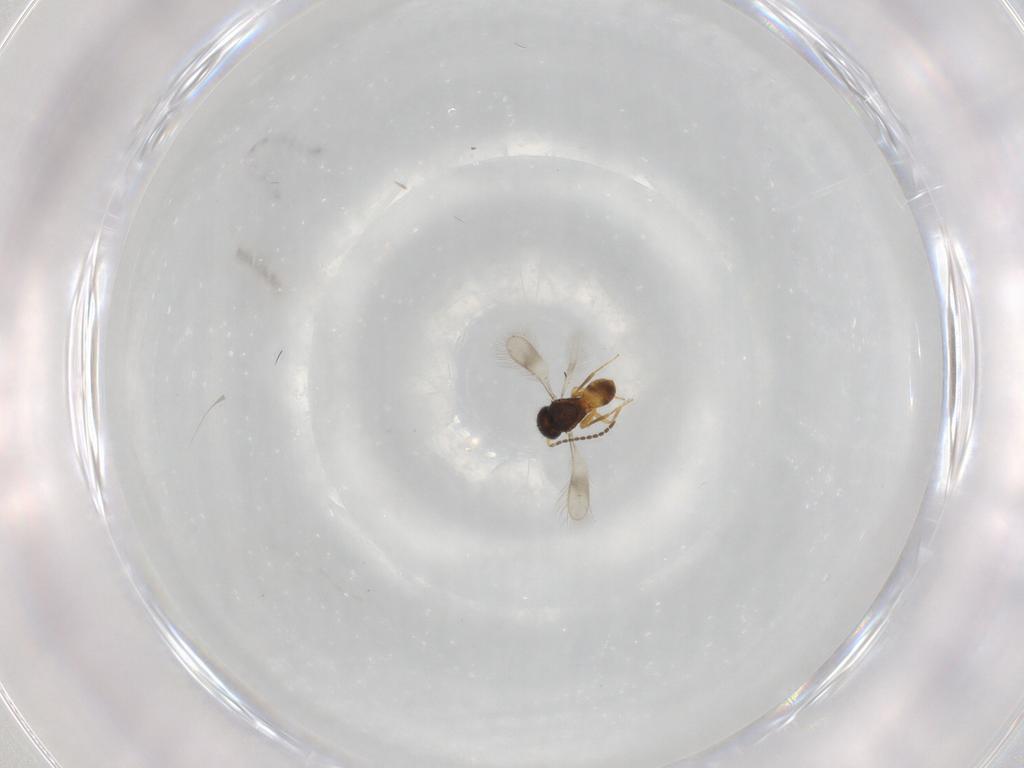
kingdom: Animalia
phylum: Arthropoda
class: Insecta
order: Hymenoptera
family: Scelionidae
